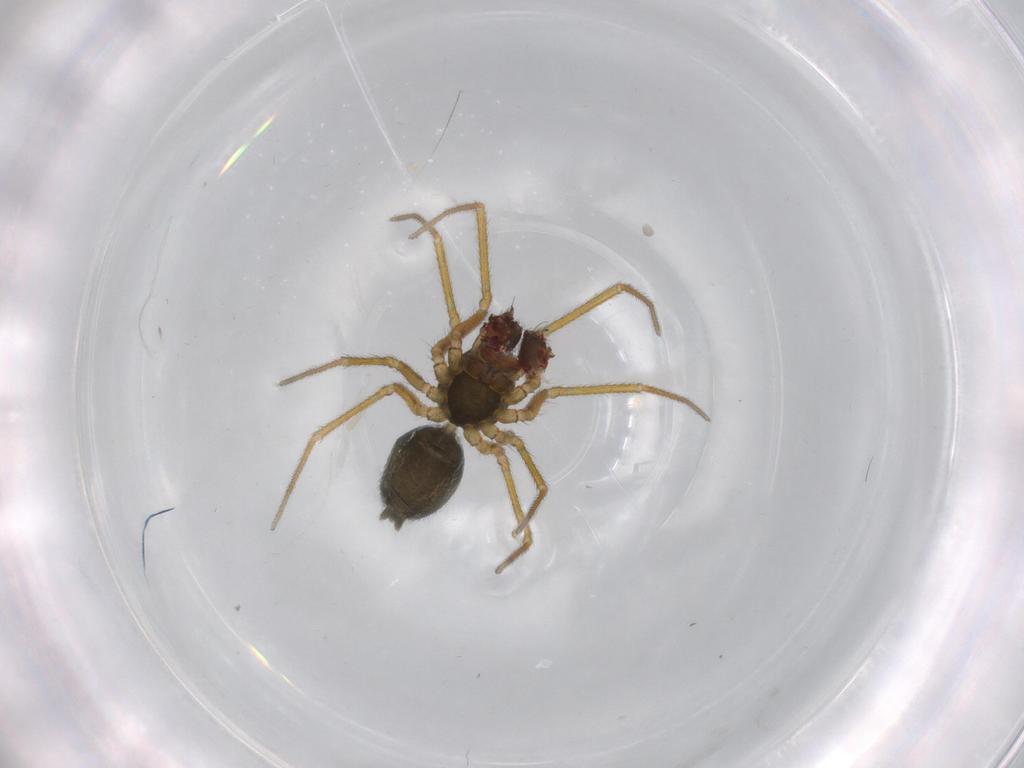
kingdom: Animalia
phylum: Arthropoda
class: Arachnida
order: Araneae
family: Linyphiidae
